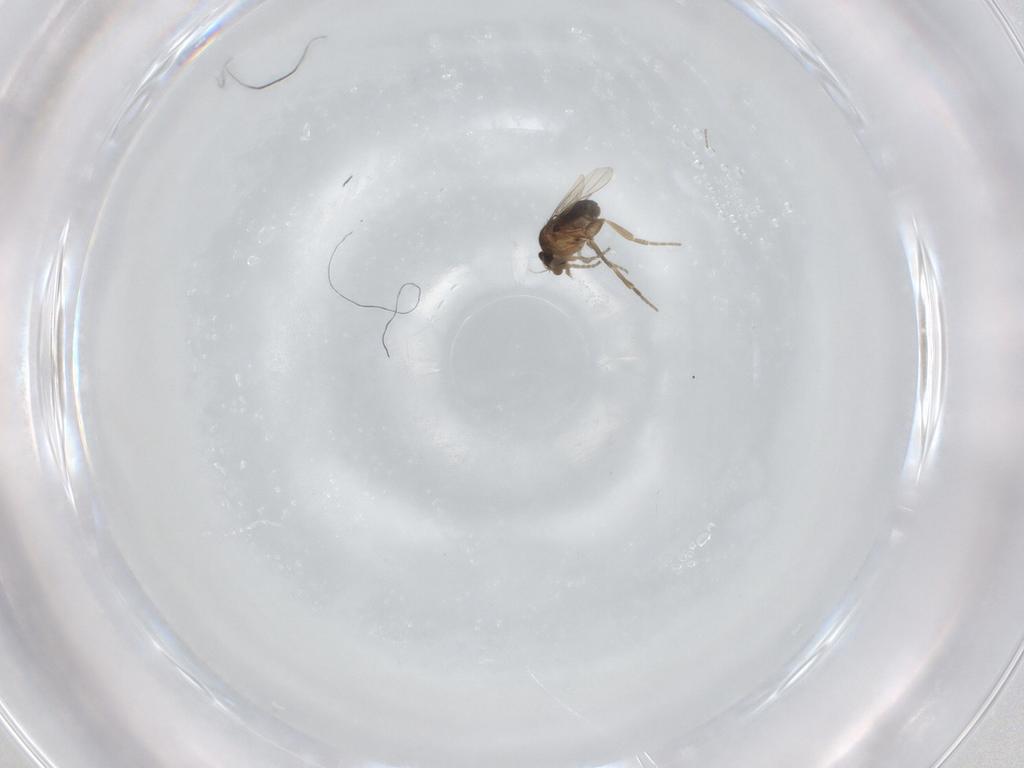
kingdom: Animalia
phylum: Arthropoda
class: Insecta
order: Diptera
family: Phoridae
